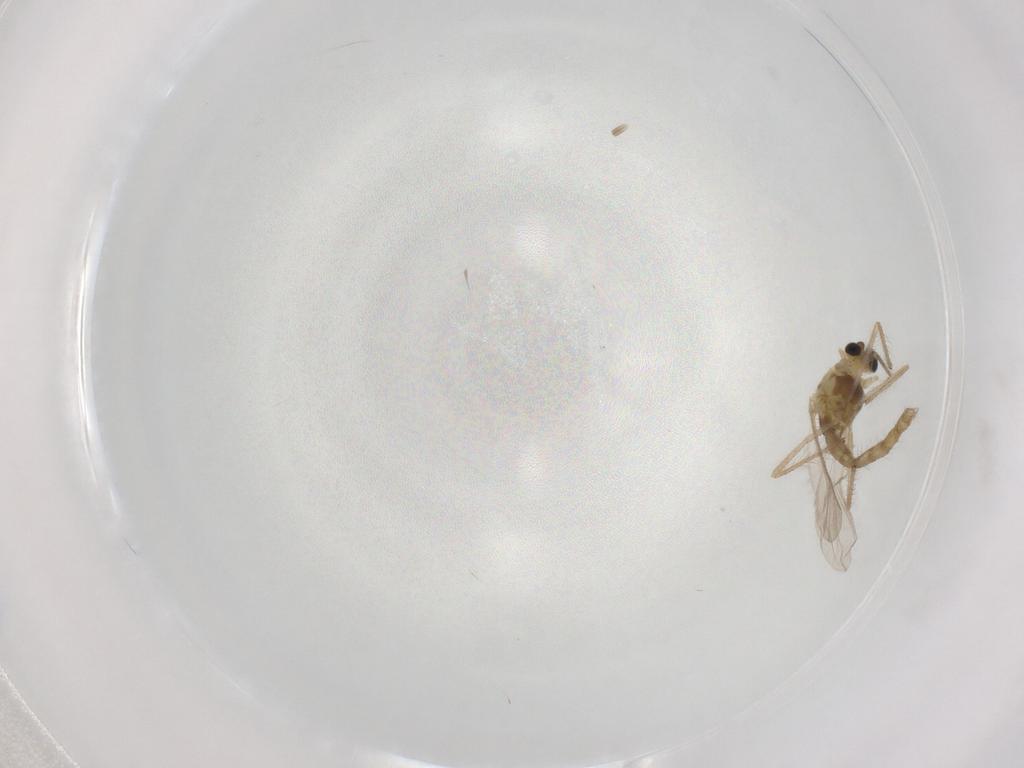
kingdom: Animalia
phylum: Arthropoda
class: Insecta
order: Diptera
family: Chironomidae
